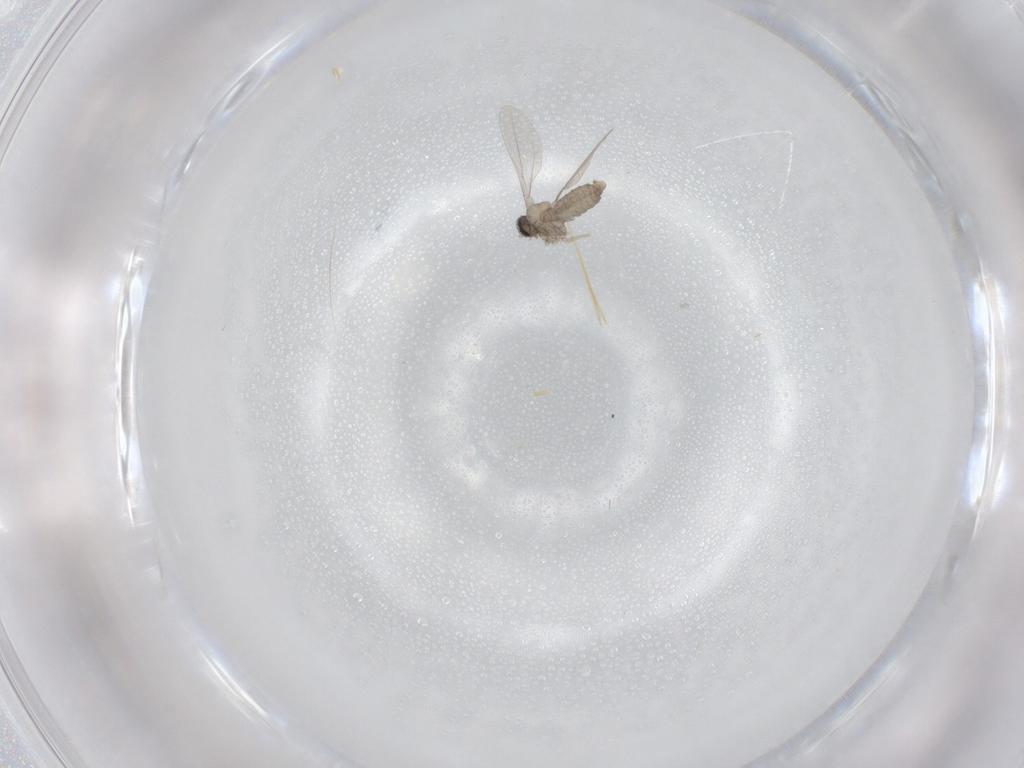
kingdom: Animalia
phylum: Arthropoda
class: Insecta
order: Diptera
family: Cecidomyiidae
